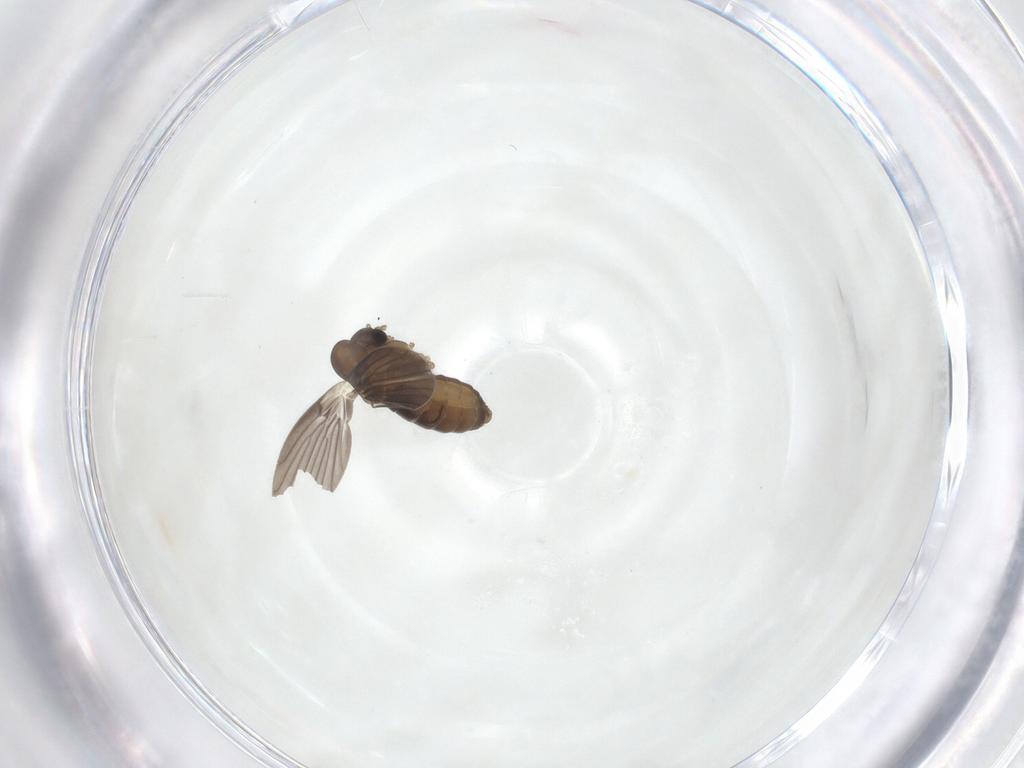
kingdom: Animalia
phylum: Arthropoda
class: Insecta
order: Diptera
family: Psychodidae
